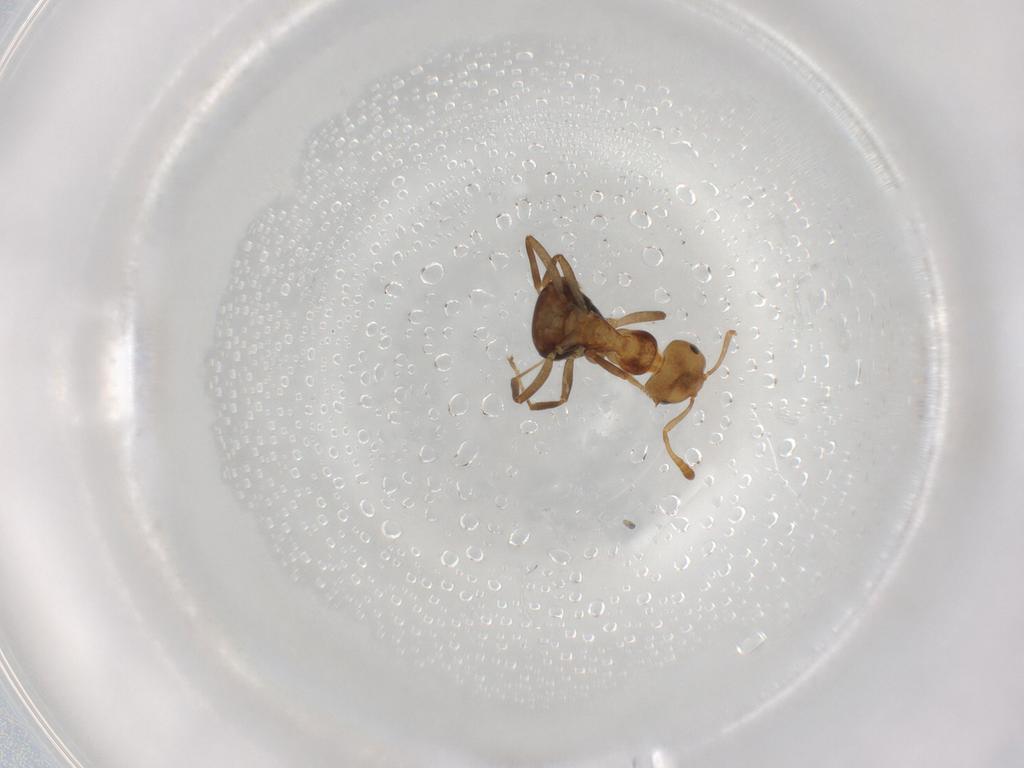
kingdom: Animalia
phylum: Arthropoda
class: Insecta
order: Hymenoptera
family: Formicidae
